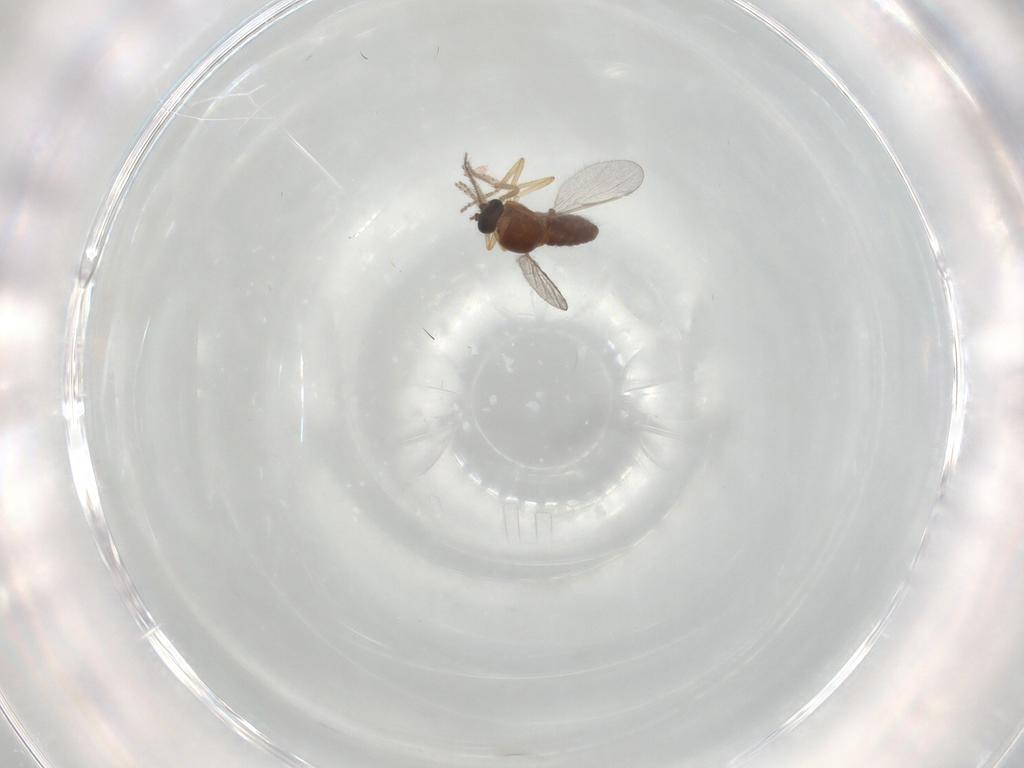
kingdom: Animalia
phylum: Arthropoda
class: Insecta
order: Diptera
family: Ceratopogonidae
